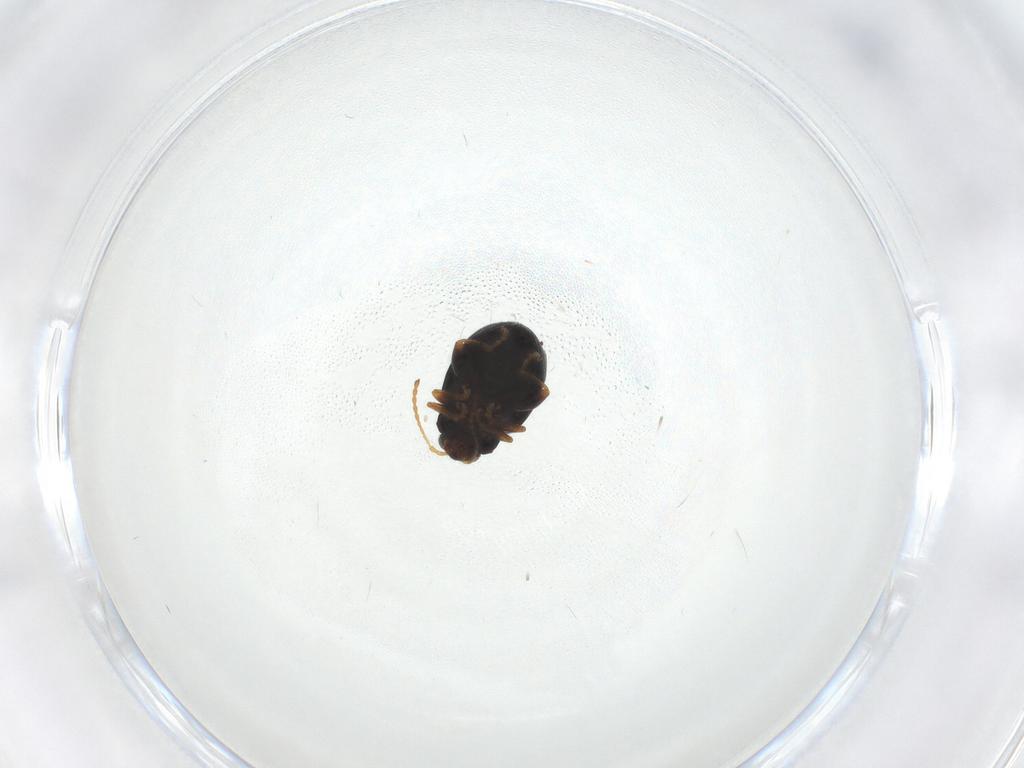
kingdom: Animalia
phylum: Arthropoda
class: Insecta
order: Coleoptera
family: Chrysomelidae
